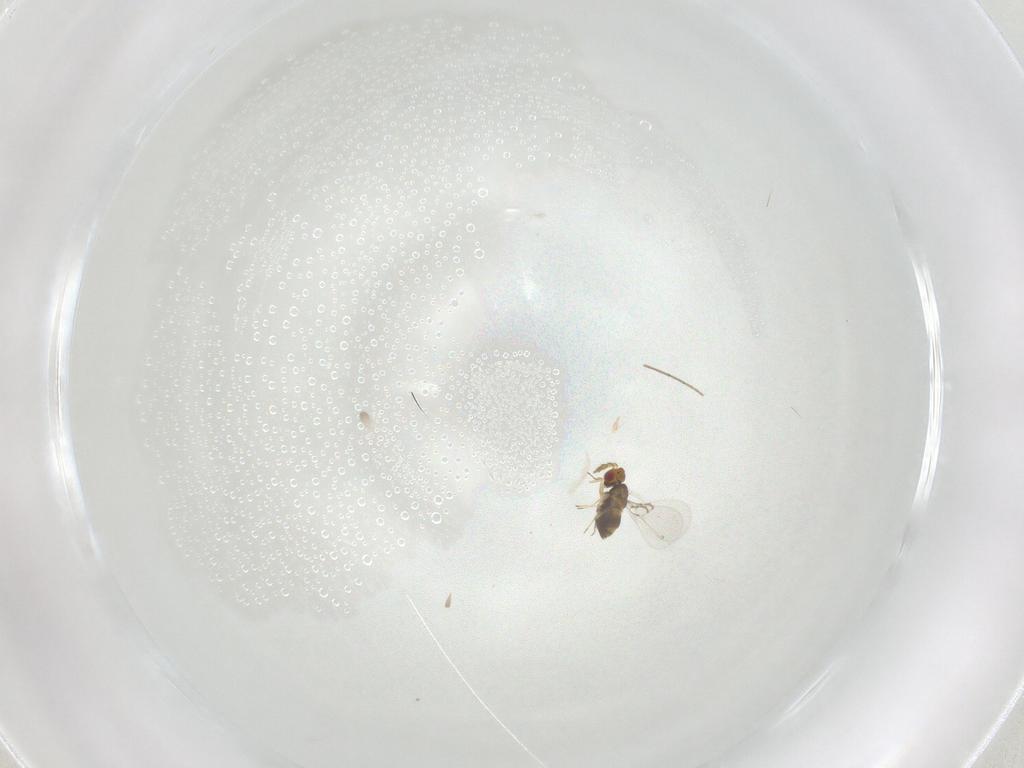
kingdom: Animalia
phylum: Arthropoda
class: Insecta
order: Hymenoptera
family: Trichogrammatidae
